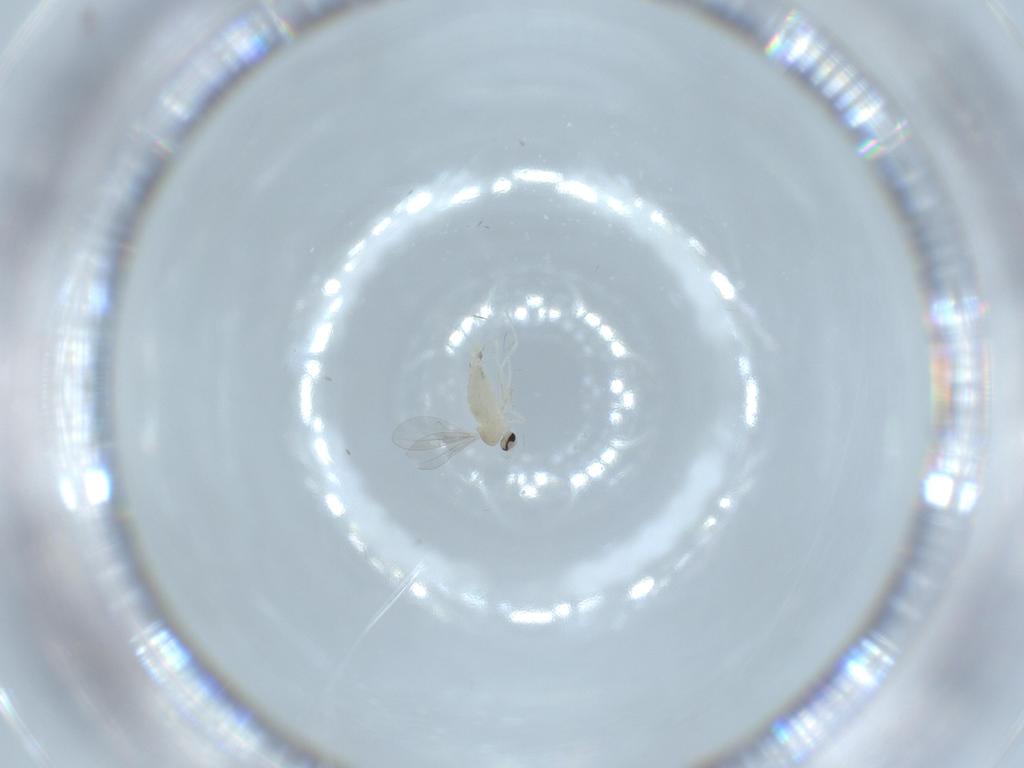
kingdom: Animalia
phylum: Arthropoda
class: Insecta
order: Diptera
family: Cecidomyiidae
